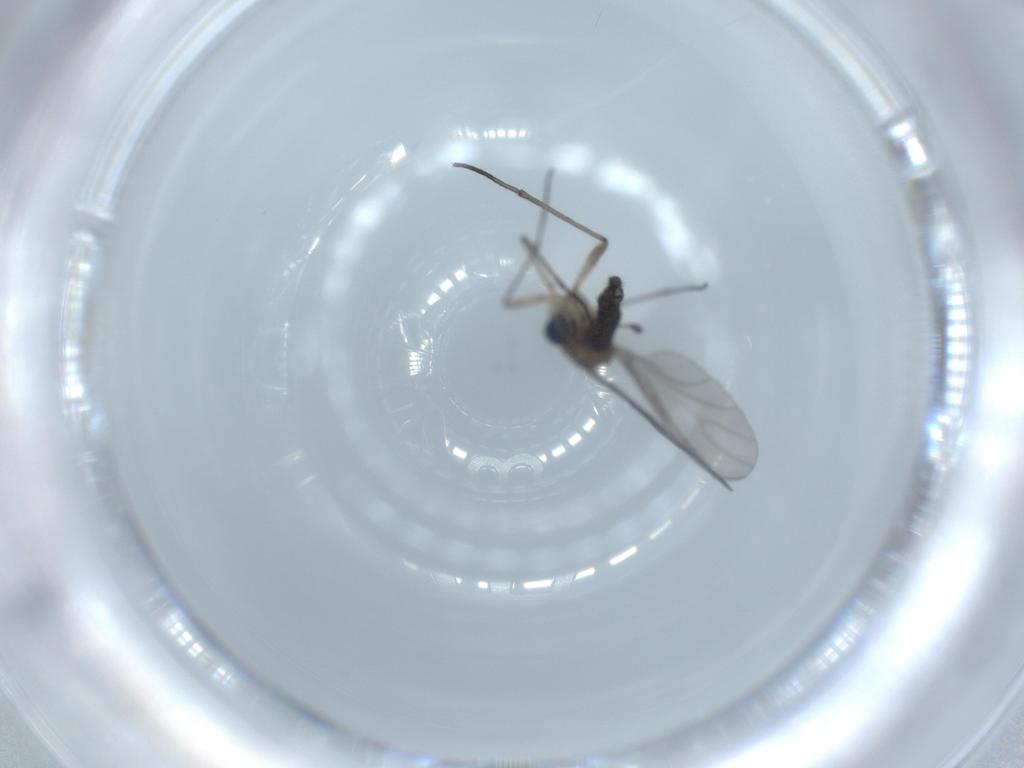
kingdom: Animalia
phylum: Arthropoda
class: Insecta
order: Diptera
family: Sciaridae
